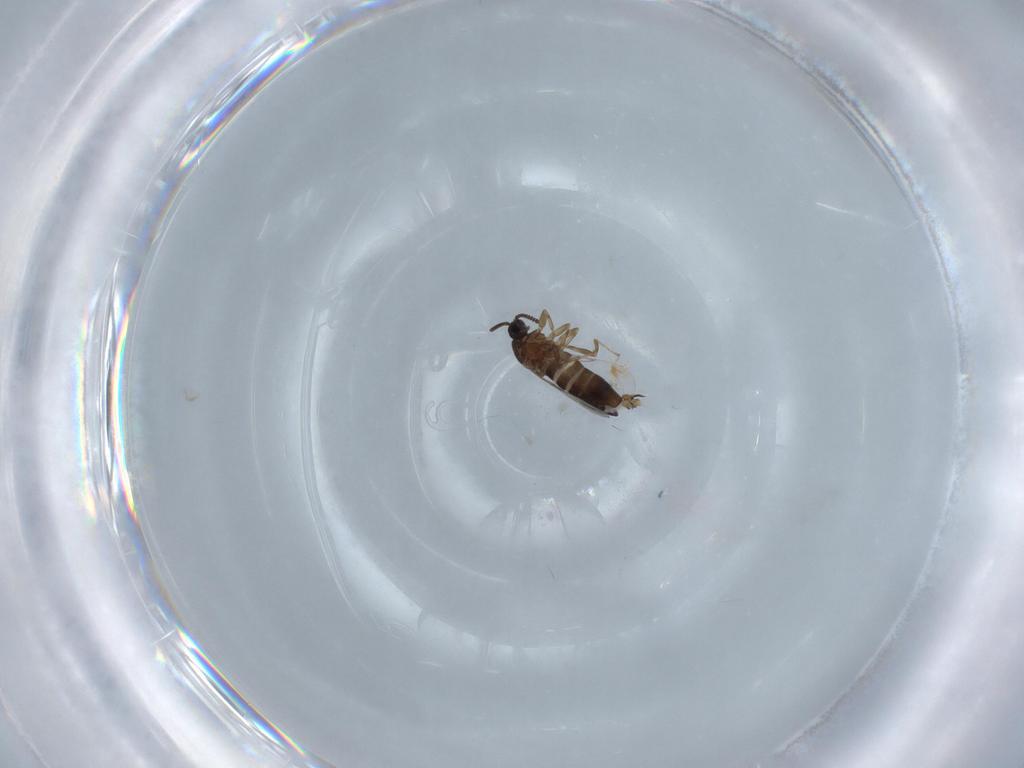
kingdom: Animalia
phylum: Arthropoda
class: Insecta
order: Diptera
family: Scatopsidae
